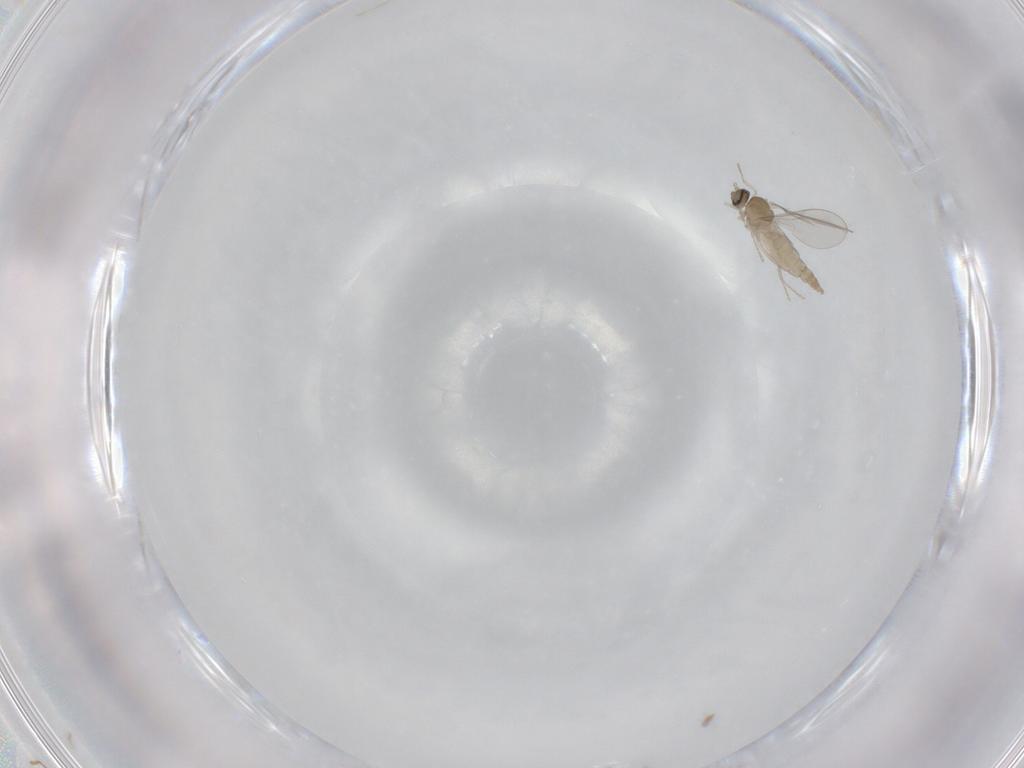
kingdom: Animalia
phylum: Arthropoda
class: Insecta
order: Diptera
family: Cecidomyiidae
